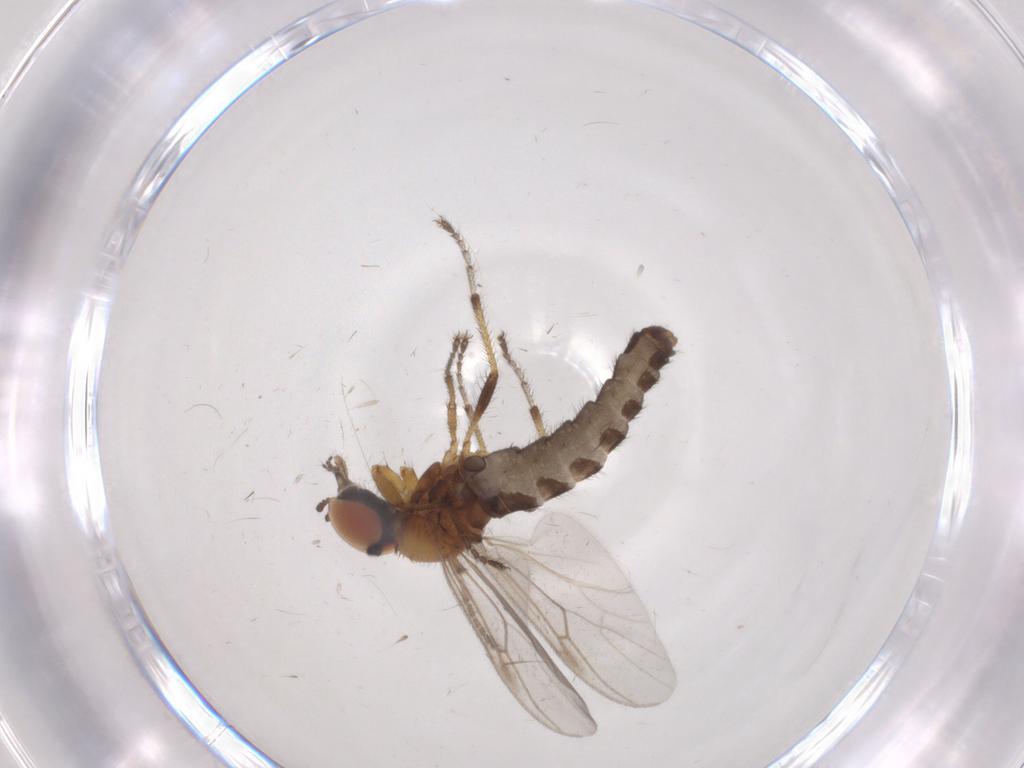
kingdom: Animalia
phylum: Arthropoda
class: Insecta
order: Diptera
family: Bibionidae
